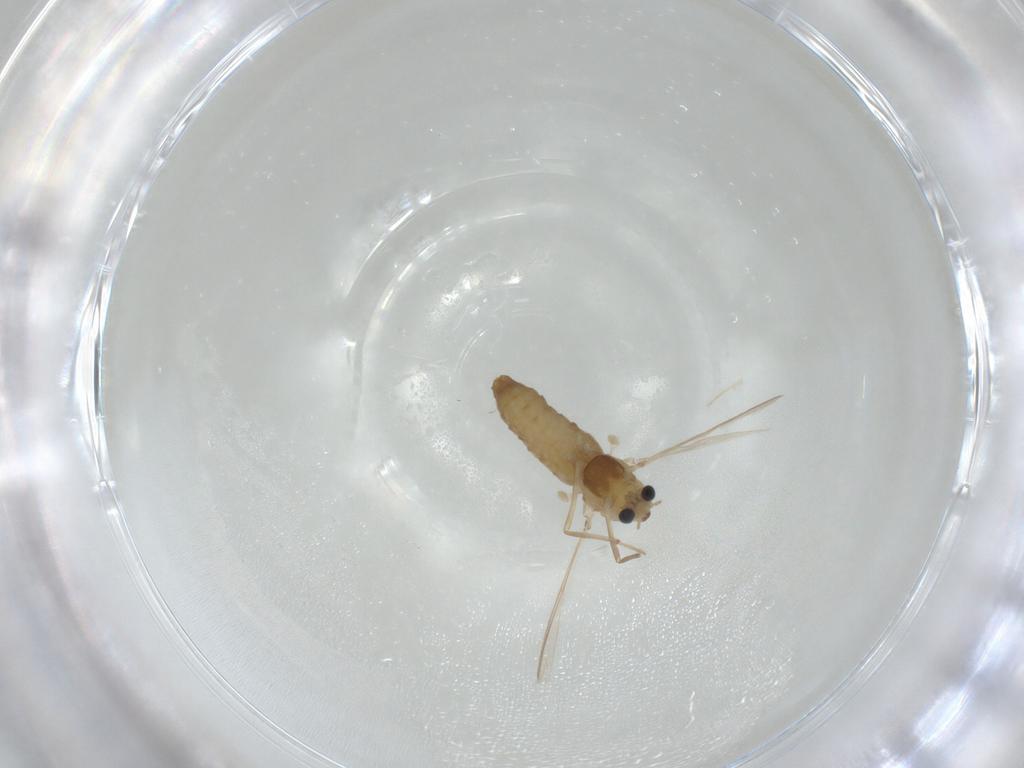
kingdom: Animalia
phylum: Arthropoda
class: Insecta
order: Diptera
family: Chironomidae
